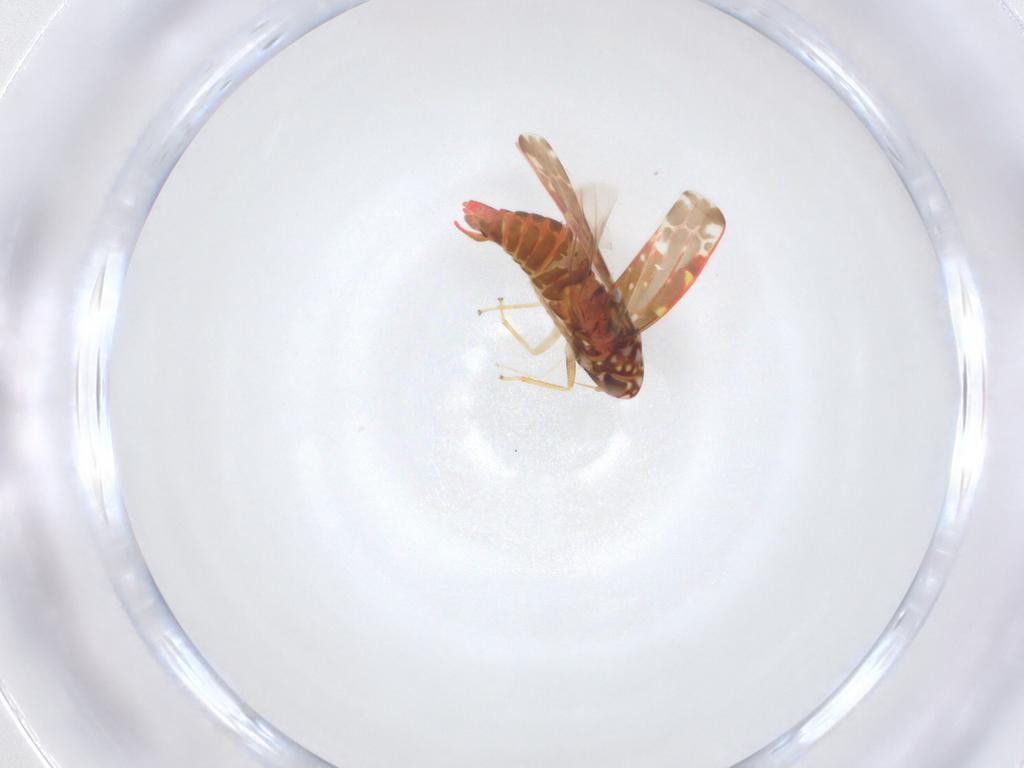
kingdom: Animalia
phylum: Arthropoda
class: Insecta
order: Hemiptera
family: Cicadellidae
